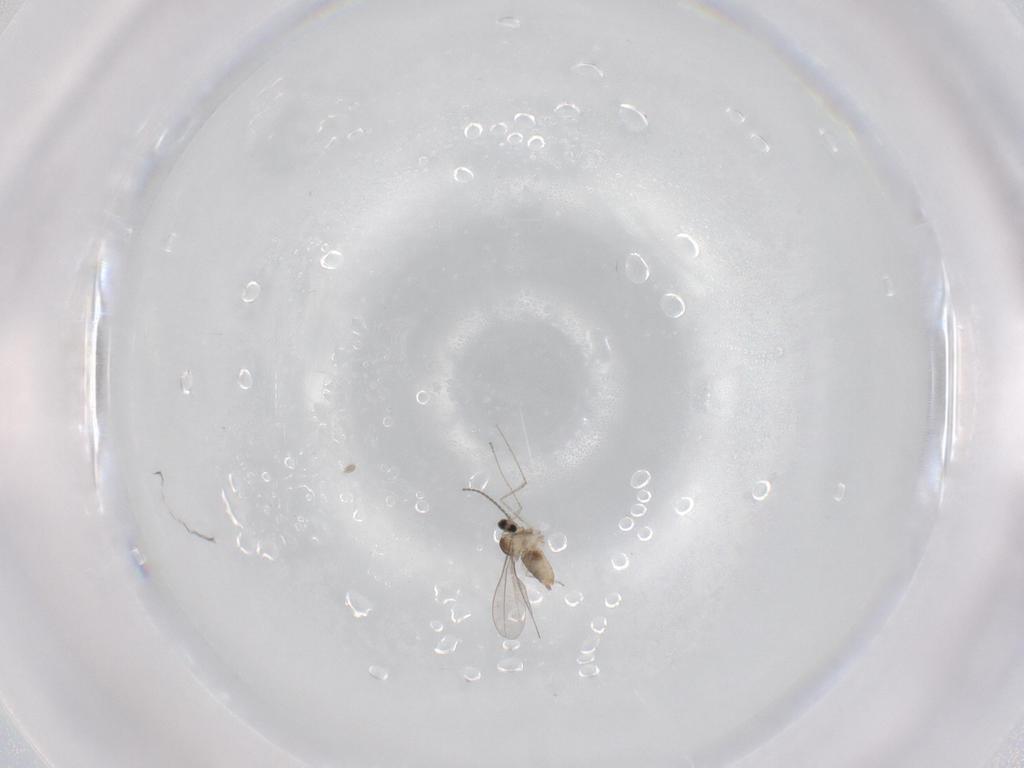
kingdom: Animalia
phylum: Arthropoda
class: Insecta
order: Diptera
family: Cecidomyiidae
